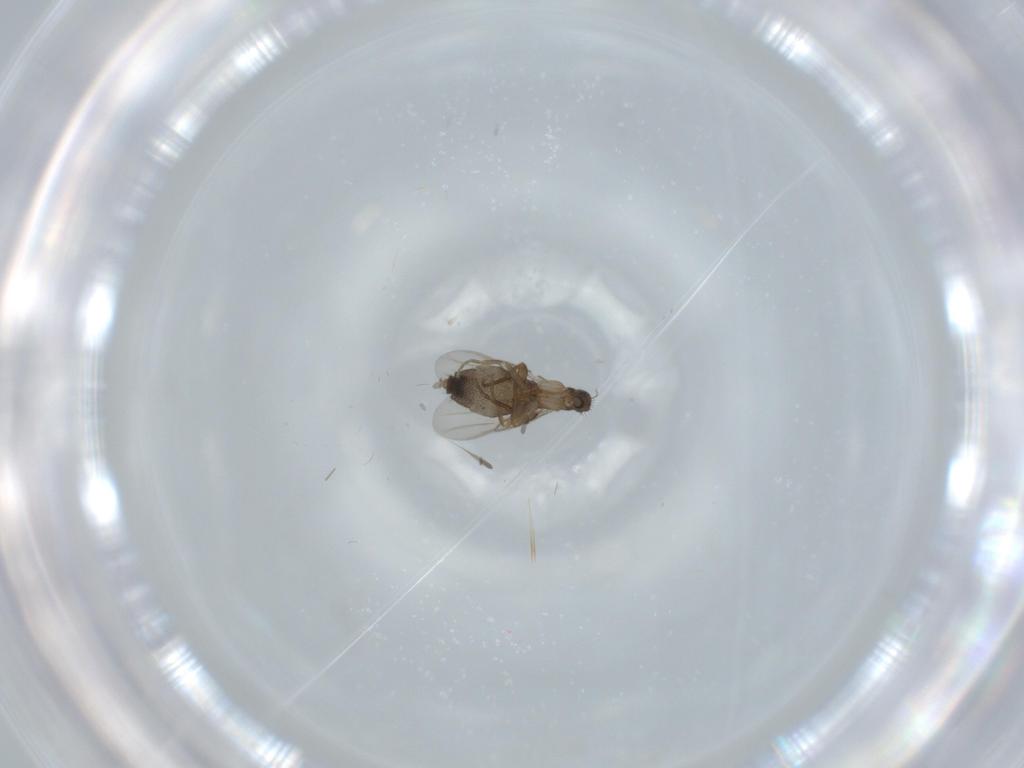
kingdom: Animalia
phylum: Arthropoda
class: Insecta
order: Diptera
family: Phoridae
